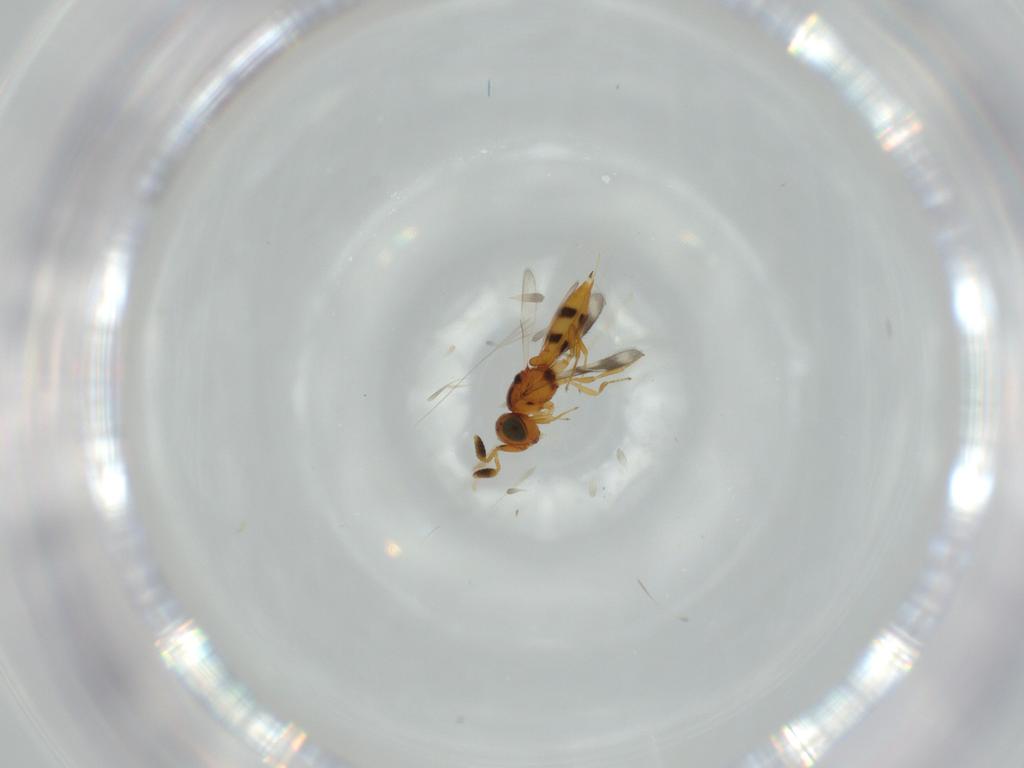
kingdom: Animalia
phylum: Arthropoda
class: Insecta
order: Hymenoptera
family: Scelionidae
